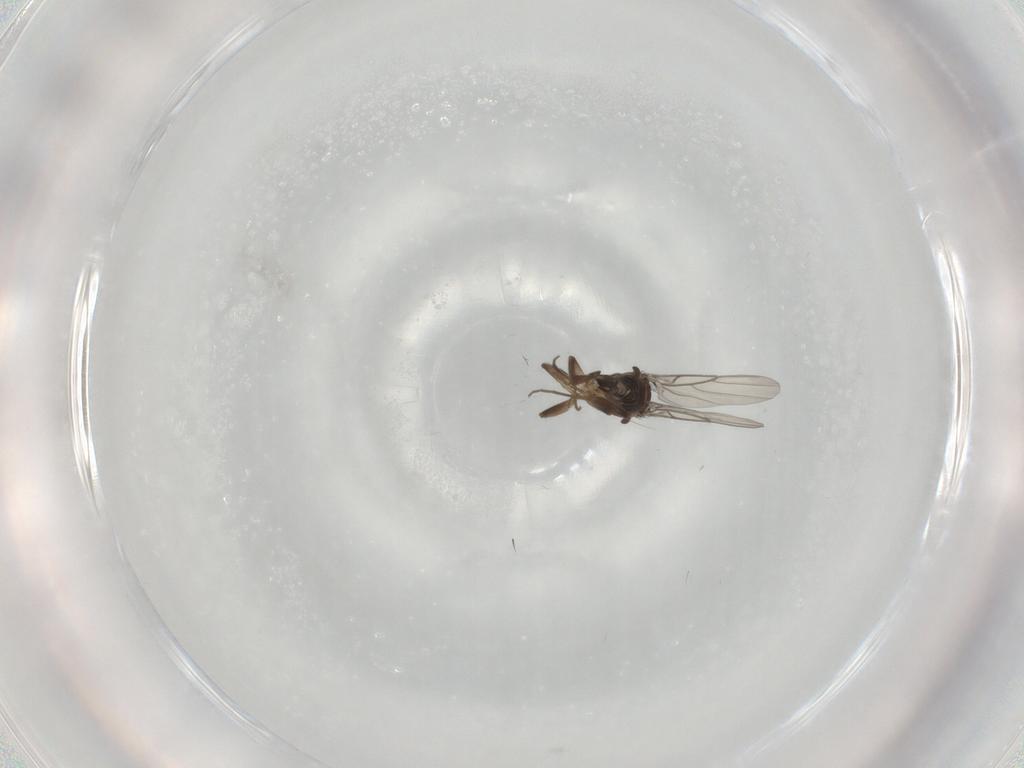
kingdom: Animalia
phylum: Arthropoda
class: Insecta
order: Diptera
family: Phoridae
